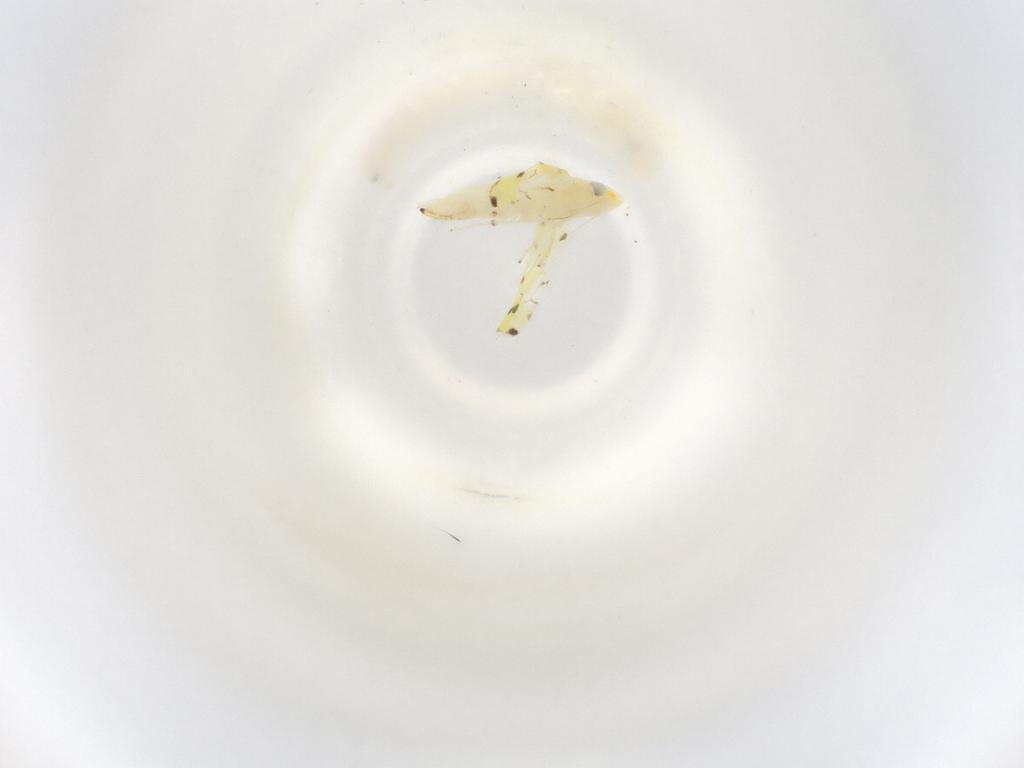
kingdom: Animalia
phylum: Arthropoda
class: Insecta
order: Hemiptera
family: Cicadellidae
